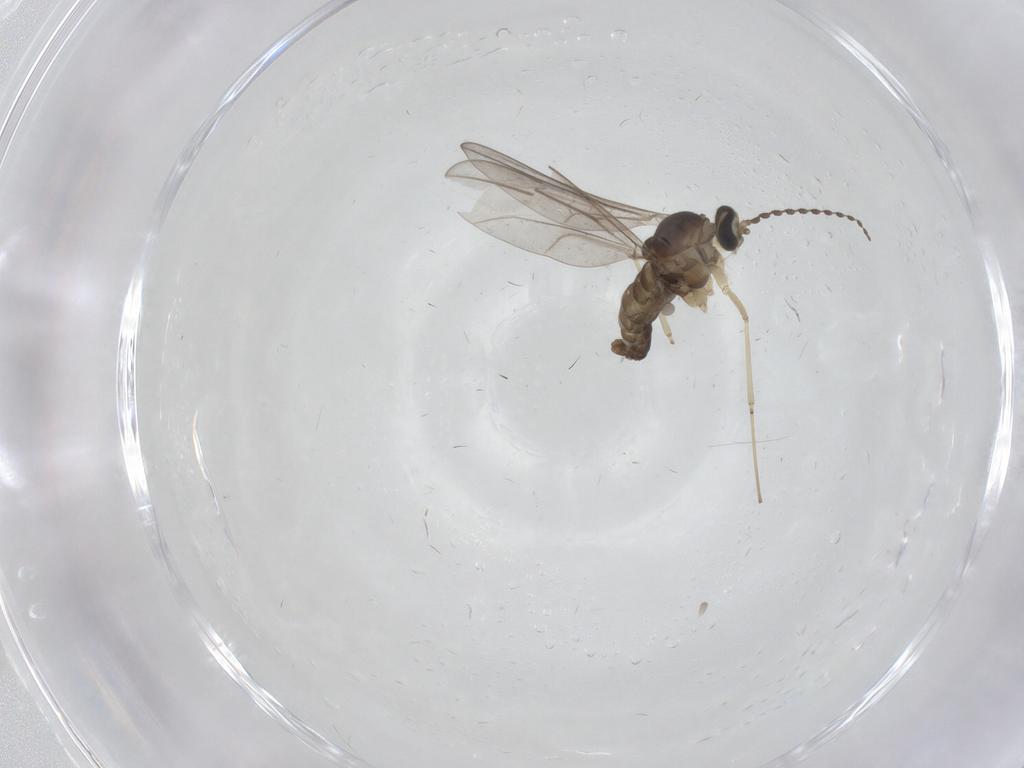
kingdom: Animalia
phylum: Arthropoda
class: Insecta
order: Diptera
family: Cecidomyiidae
